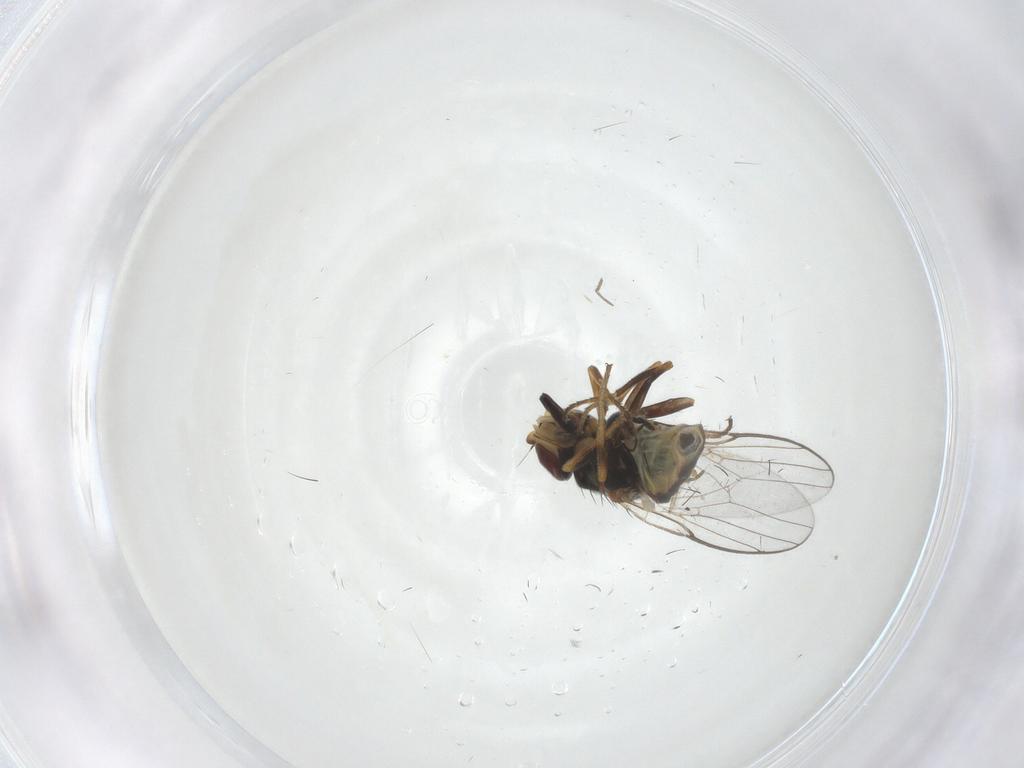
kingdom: Animalia
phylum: Arthropoda
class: Insecta
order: Diptera
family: Chloropidae
